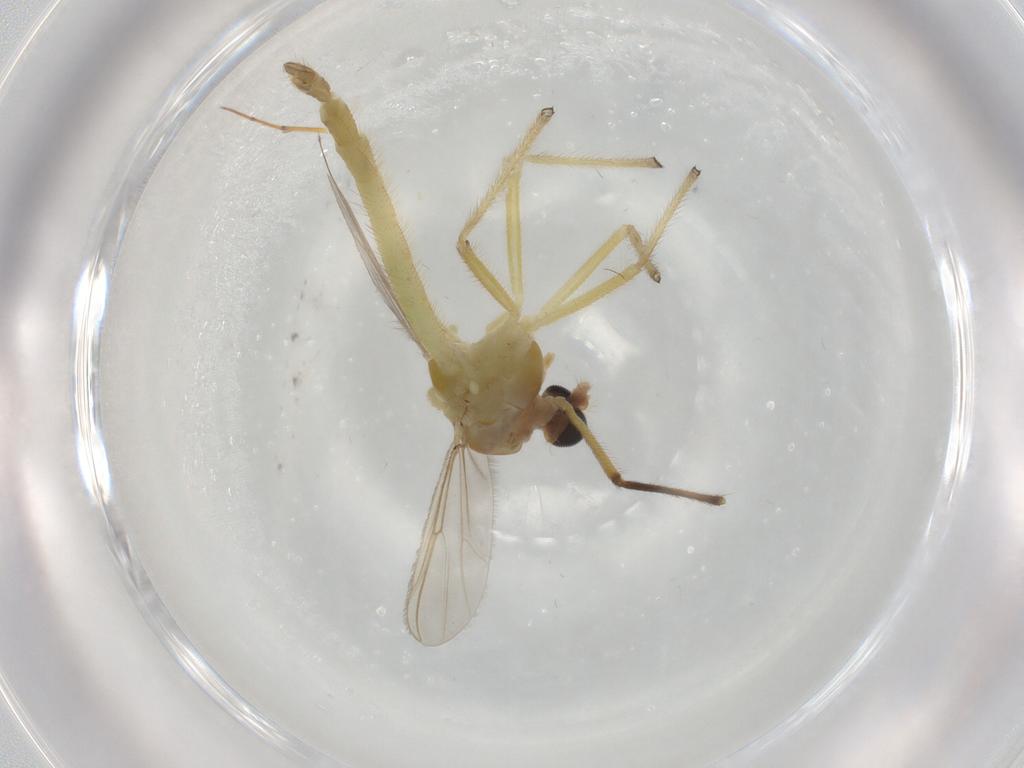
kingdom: Animalia
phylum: Arthropoda
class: Insecta
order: Diptera
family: Chironomidae
